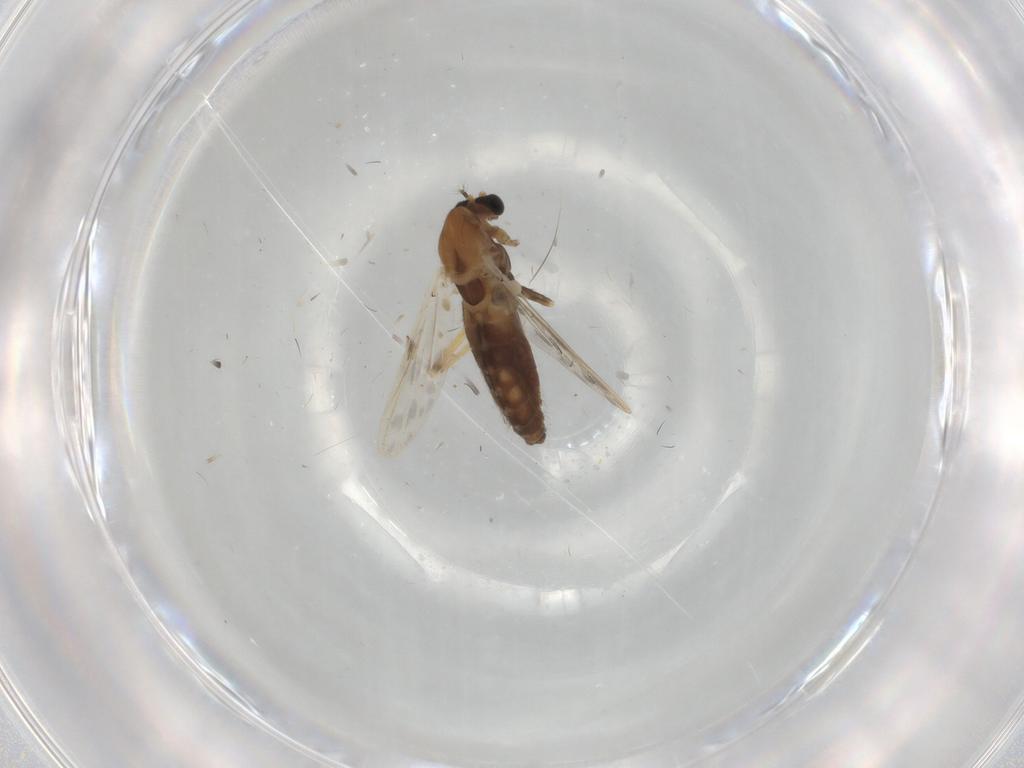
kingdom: Animalia
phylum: Arthropoda
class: Insecta
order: Diptera
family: Chironomidae
